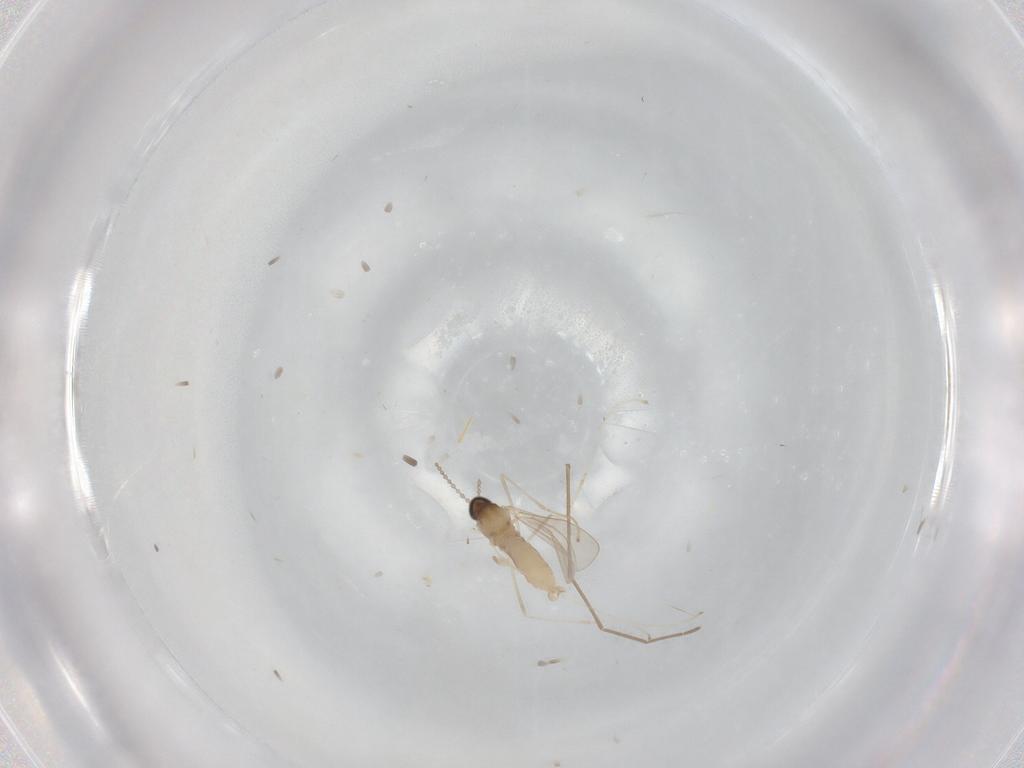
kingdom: Animalia
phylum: Arthropoda
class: Insecta
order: Diptera
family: Cecidomyiidae
